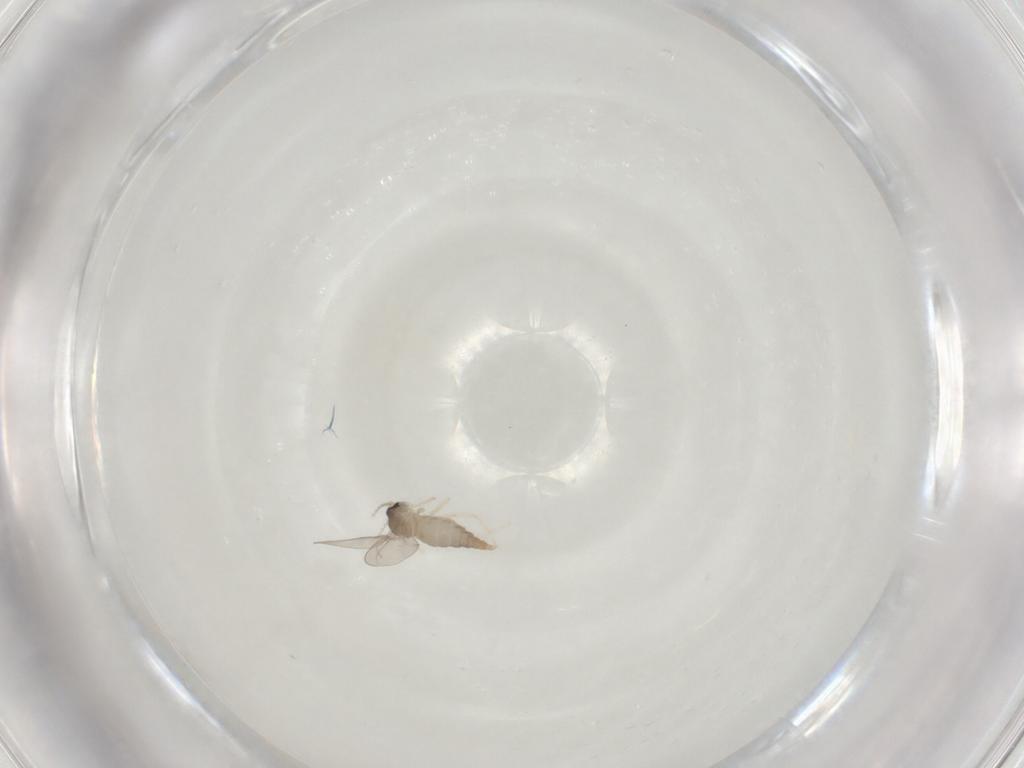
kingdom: Animalia
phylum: Arthropoda
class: Insecta
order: Diptera
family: Cecidomyiidae
